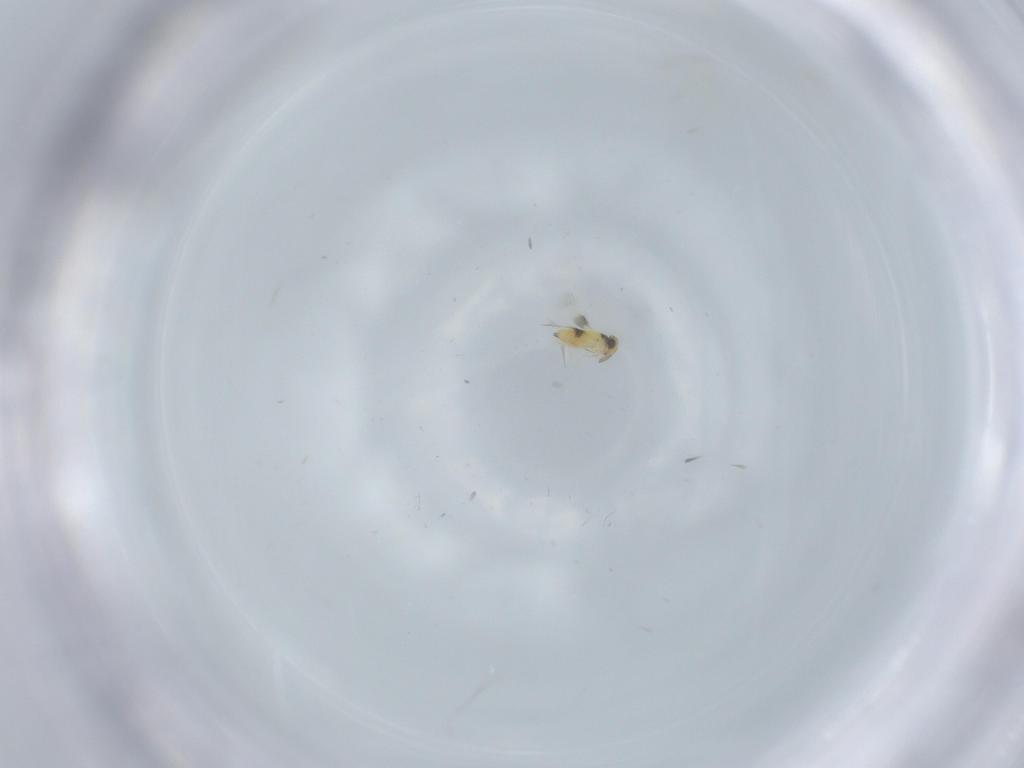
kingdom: Animalia
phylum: Arthropoda
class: Insecta
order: Hymenoptera
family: Dryinidae
